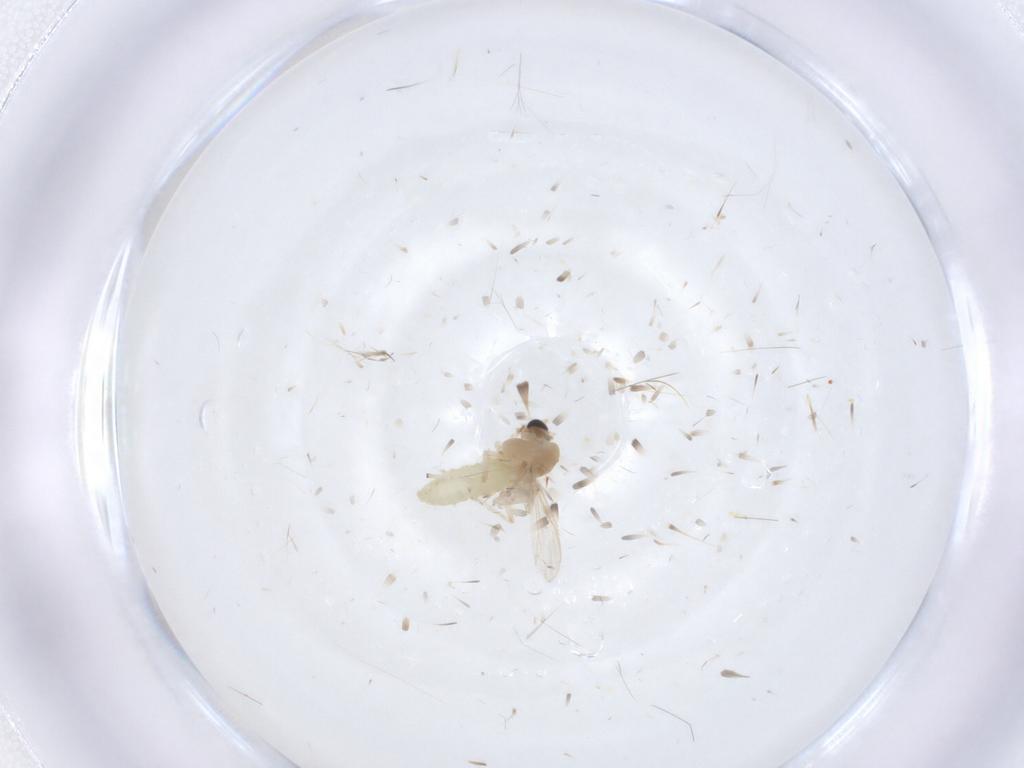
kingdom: Animalia
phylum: Arthropoda
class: Insecta
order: Diptera
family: Chironomidae
